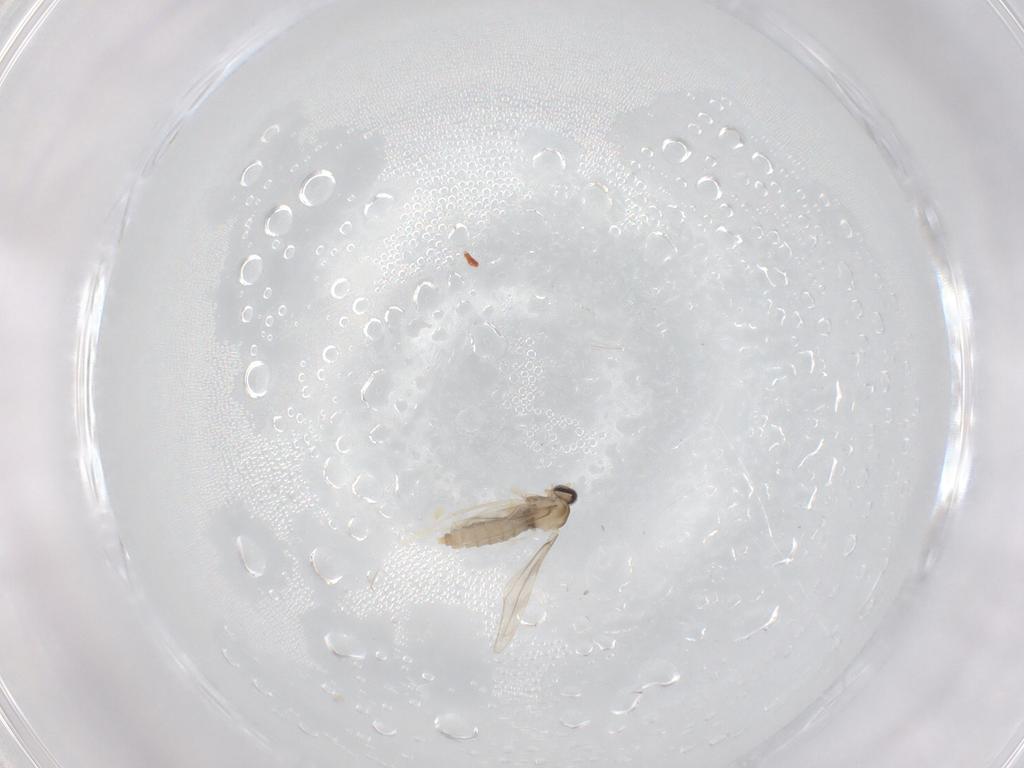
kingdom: Animalia
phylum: Arthropoda
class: Insecta
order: Diptera
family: Cecidomyiidae
